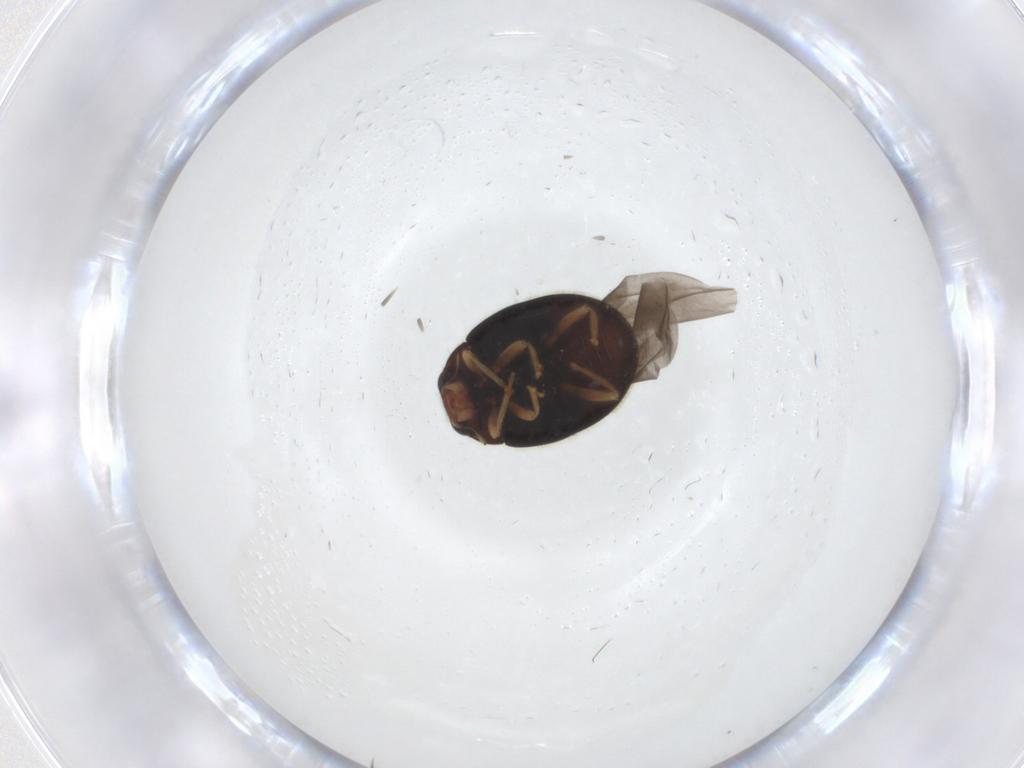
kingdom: Animalia
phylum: Arthropoda
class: Insecta
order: Coleoptera
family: Coccinellidae
